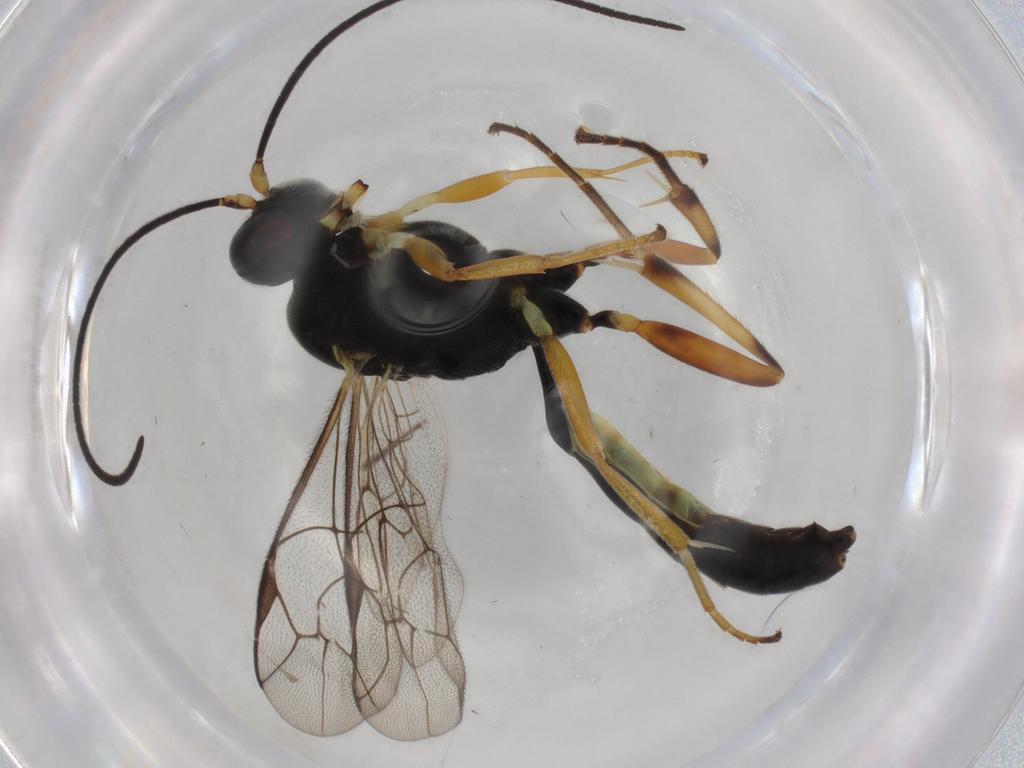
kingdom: Animalia
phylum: Arthropoda
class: Insecta
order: Hymenoptera
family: Ichneumonidae
